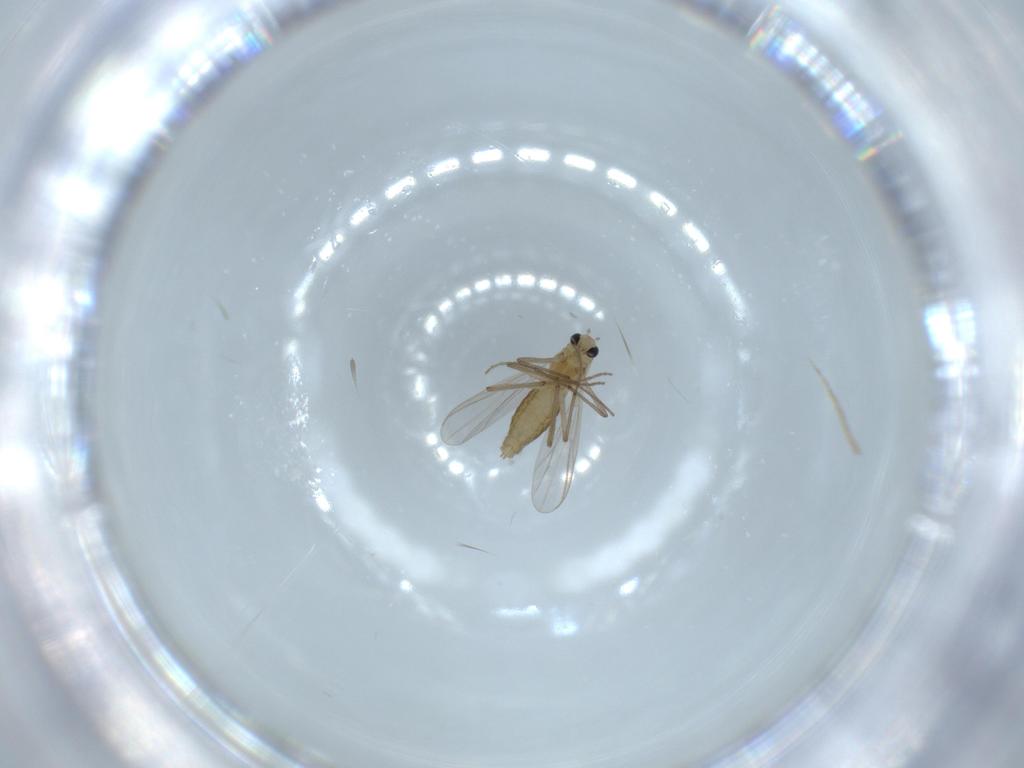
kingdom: Animalia
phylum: Arthropoda
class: Insecta
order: Diptera
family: Chironomidae
